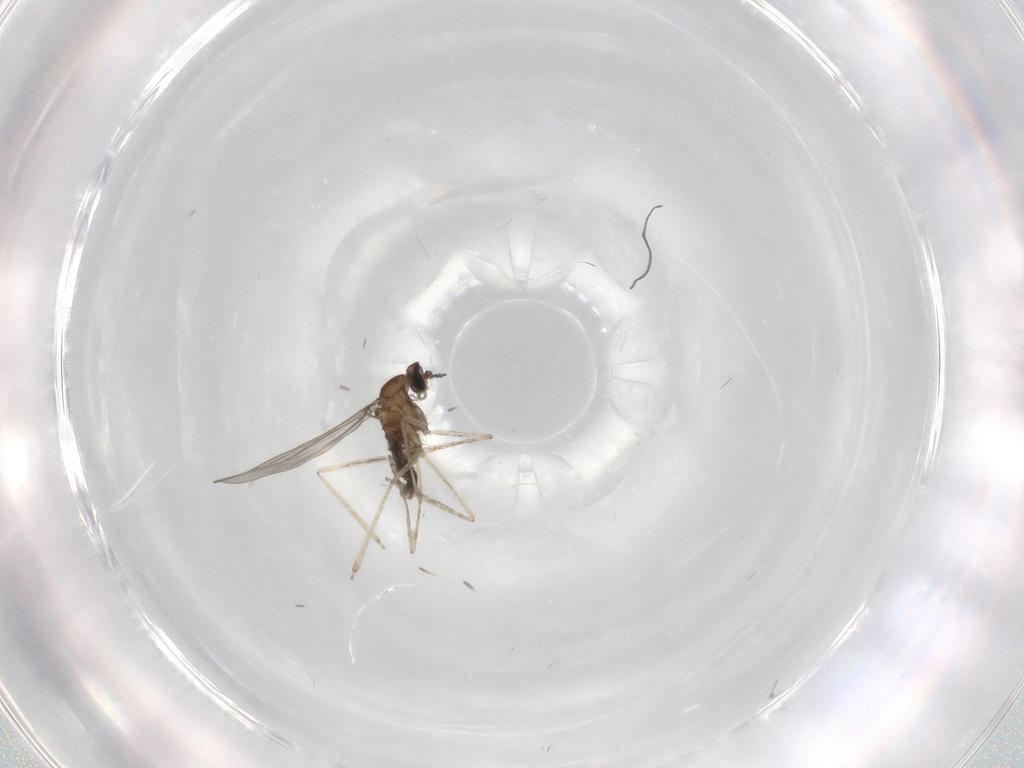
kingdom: Animalia
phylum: Arthropoda
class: Insecta
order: Diptera
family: Cecidomyiidae
